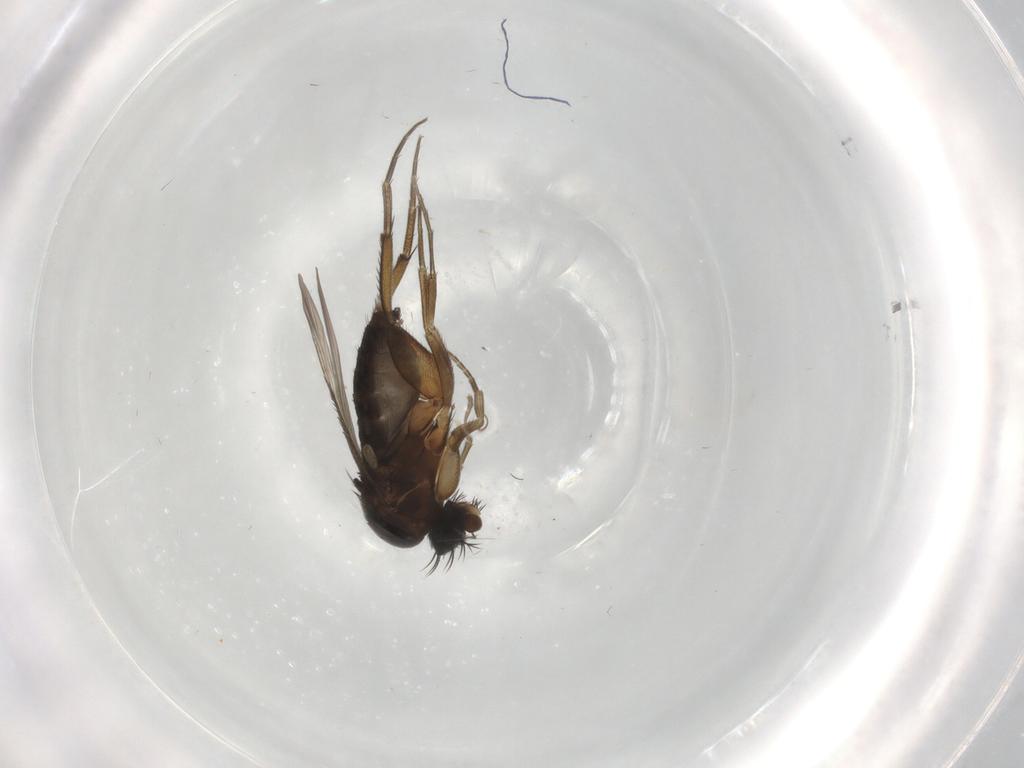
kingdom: Animalia
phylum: Arthropoda
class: Insecta
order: Diptera
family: Phoridae
